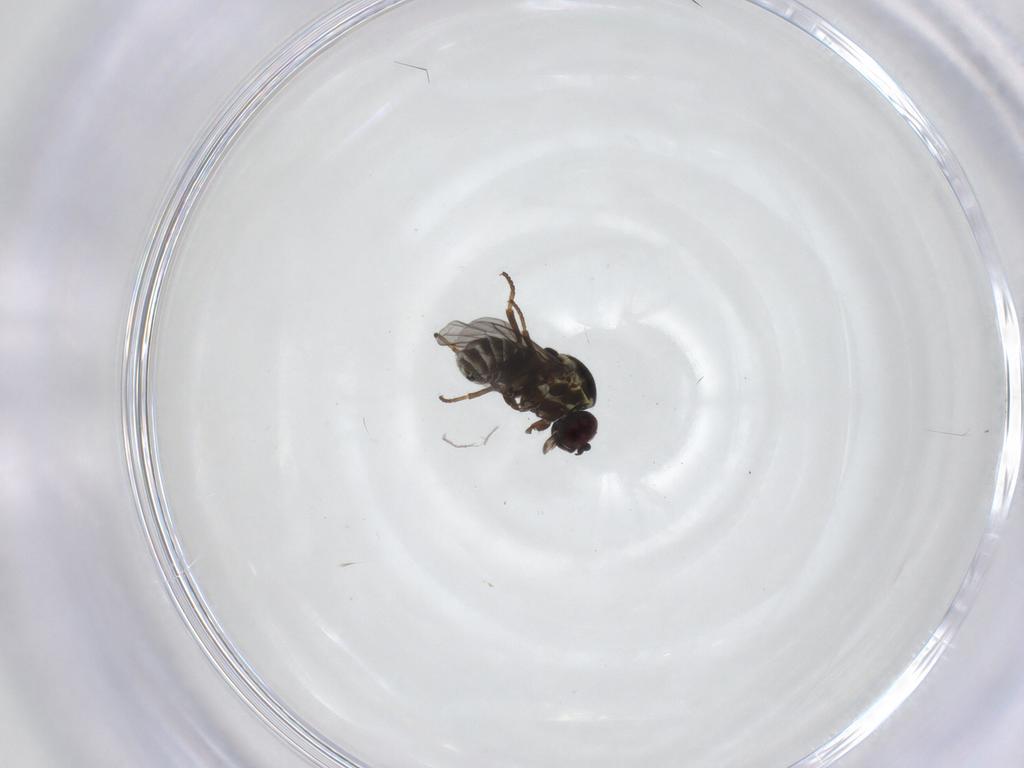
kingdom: Animalia
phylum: Arthropoda
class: Insecta
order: Diptera
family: Bombyliidae
